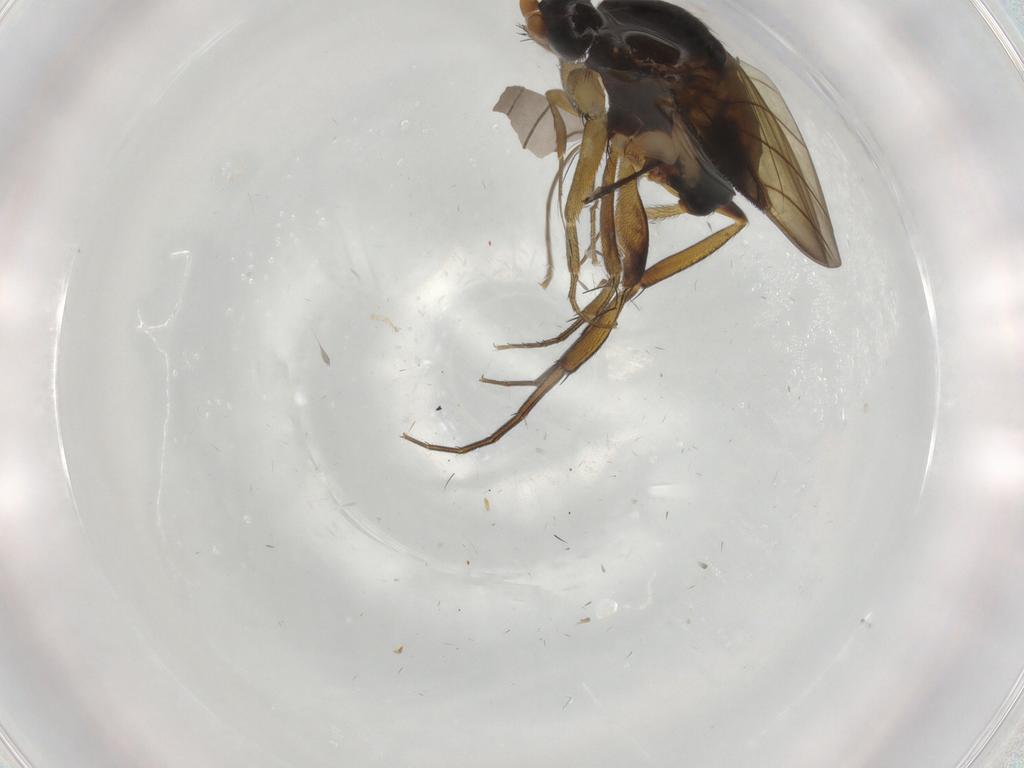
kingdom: Animalia
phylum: Arthropoda
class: Insecta
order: Diptera
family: Phoridae
